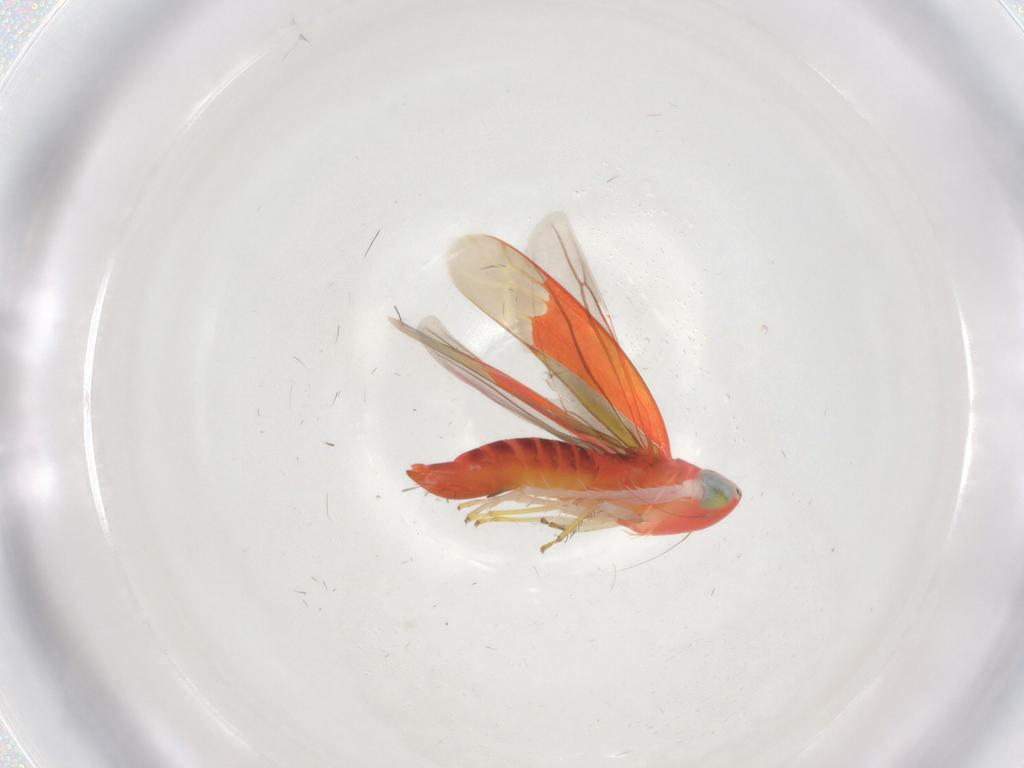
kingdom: Animalia
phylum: Arthropoda
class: Insecta
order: Hemiptera
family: Cicadellidae
